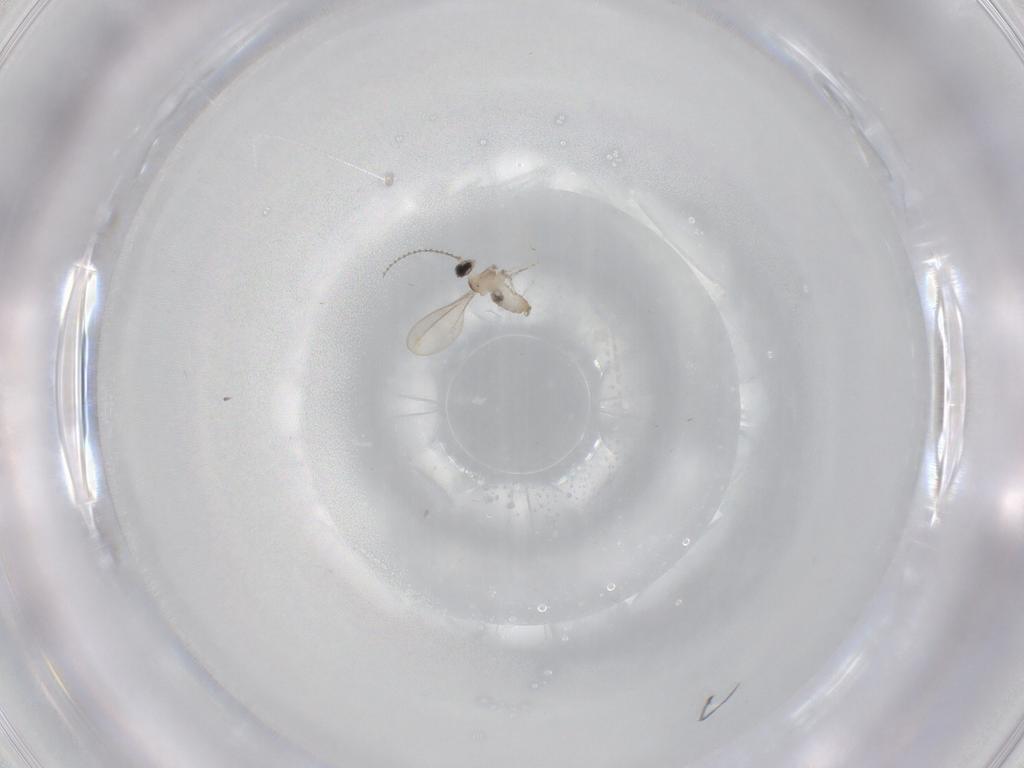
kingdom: Animalia
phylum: Arthropoda
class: Insecta
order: Diptera
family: Cecidomyiidae
